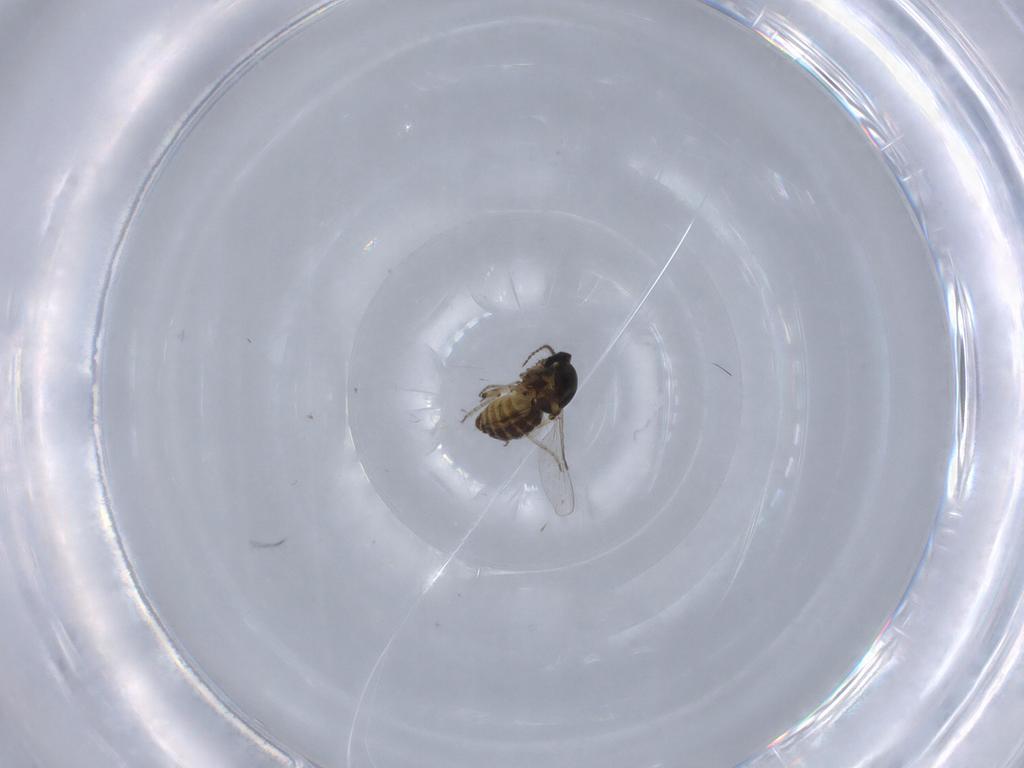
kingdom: Animalia
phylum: Arthropoda
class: Insecta
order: Diptera
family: Ceratopogonidae
